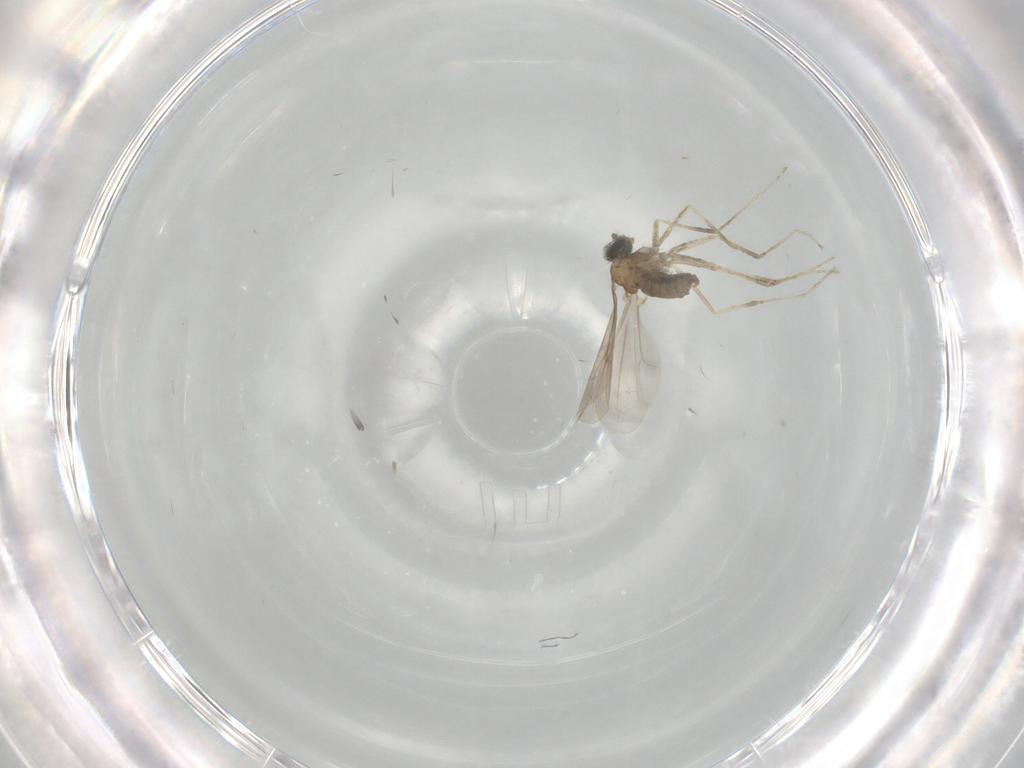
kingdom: Animalia
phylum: Arthropoda
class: Insecta
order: Diptera
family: Cecidomyiidae
